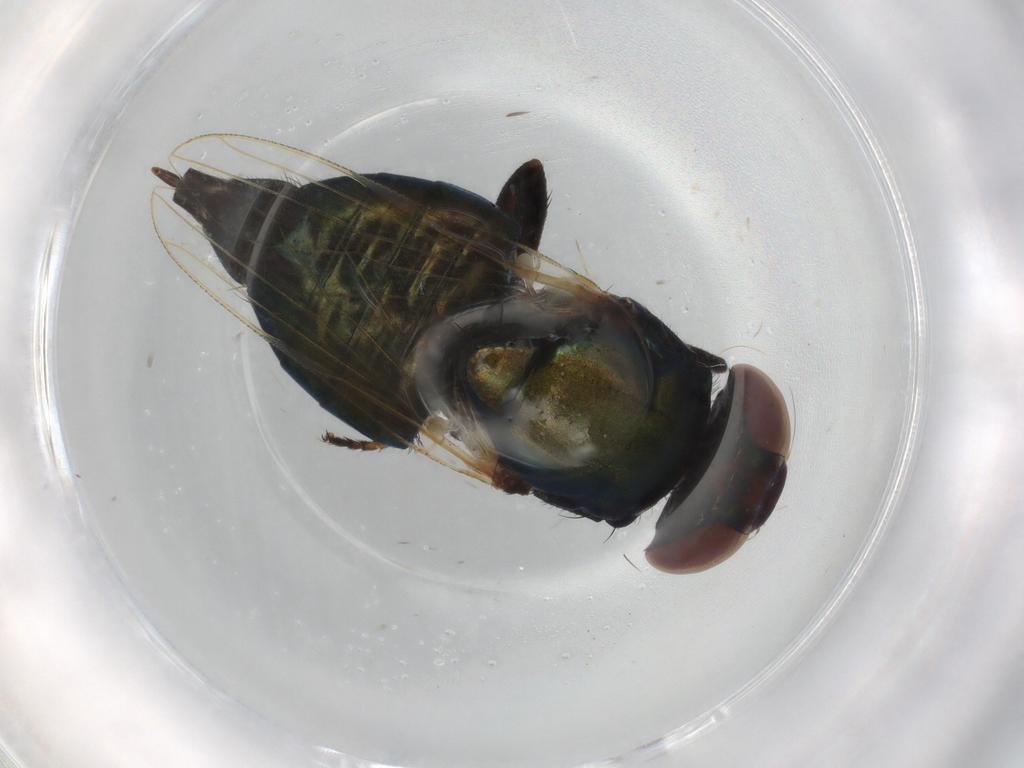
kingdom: Animalia
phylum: Arthropoda
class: Insecta
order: Diptera
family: Ulidiidae
